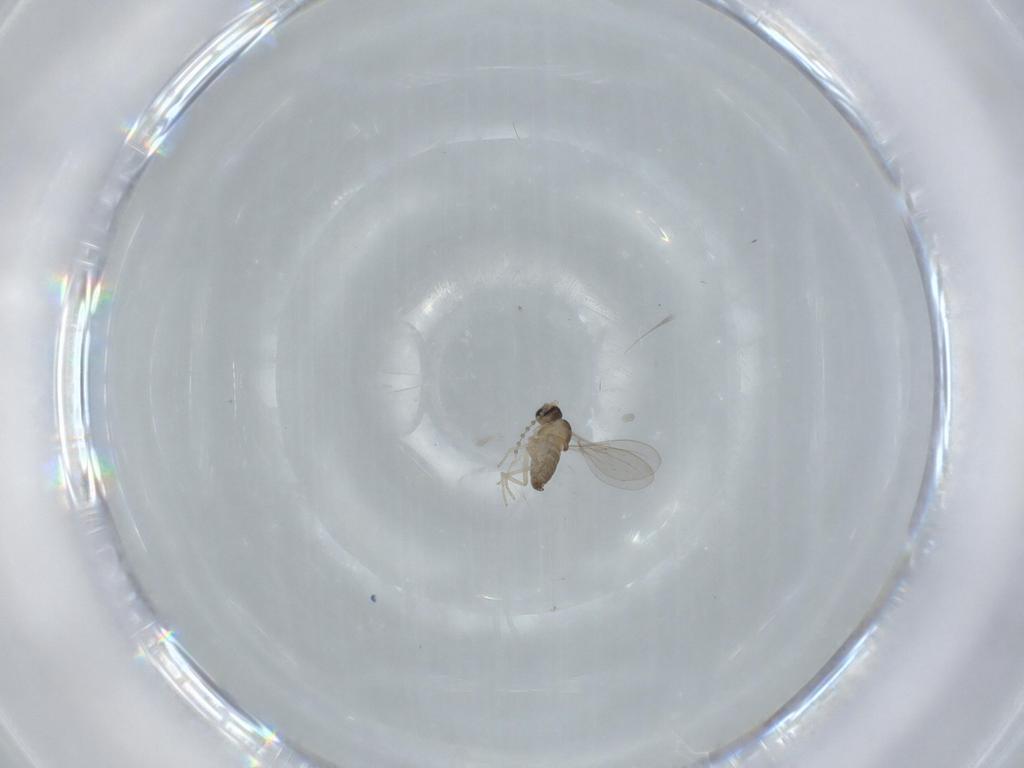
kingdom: Animalia
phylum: Arthropoda
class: Insecta
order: Diptera
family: Cecidomyiidae
